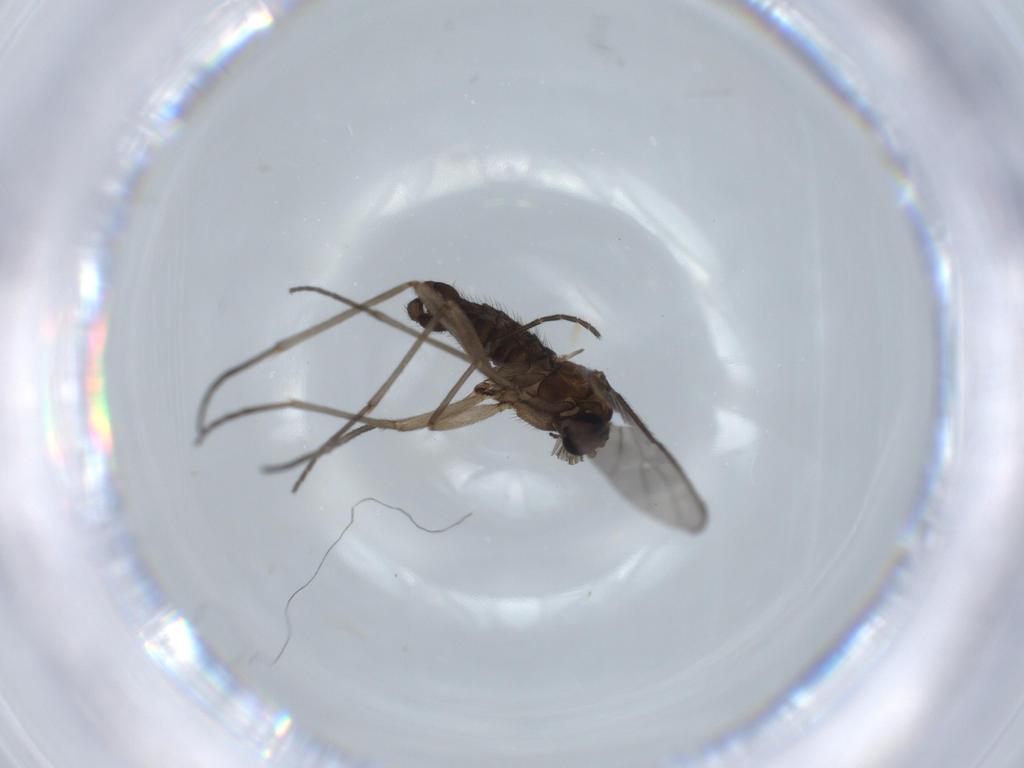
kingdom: Animalia
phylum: Arthropoda
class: Insecta
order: Diptera
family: Sciaridae
